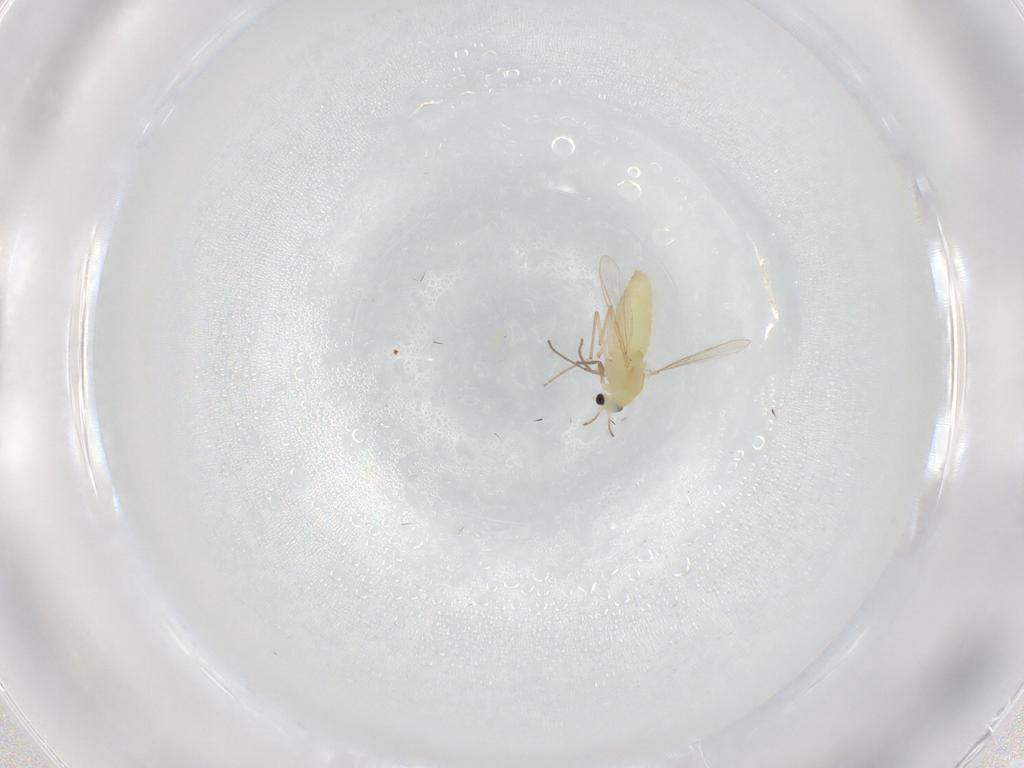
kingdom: Animalia
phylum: Arthropoda
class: Insecta
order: Diptera
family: Chironomidae
